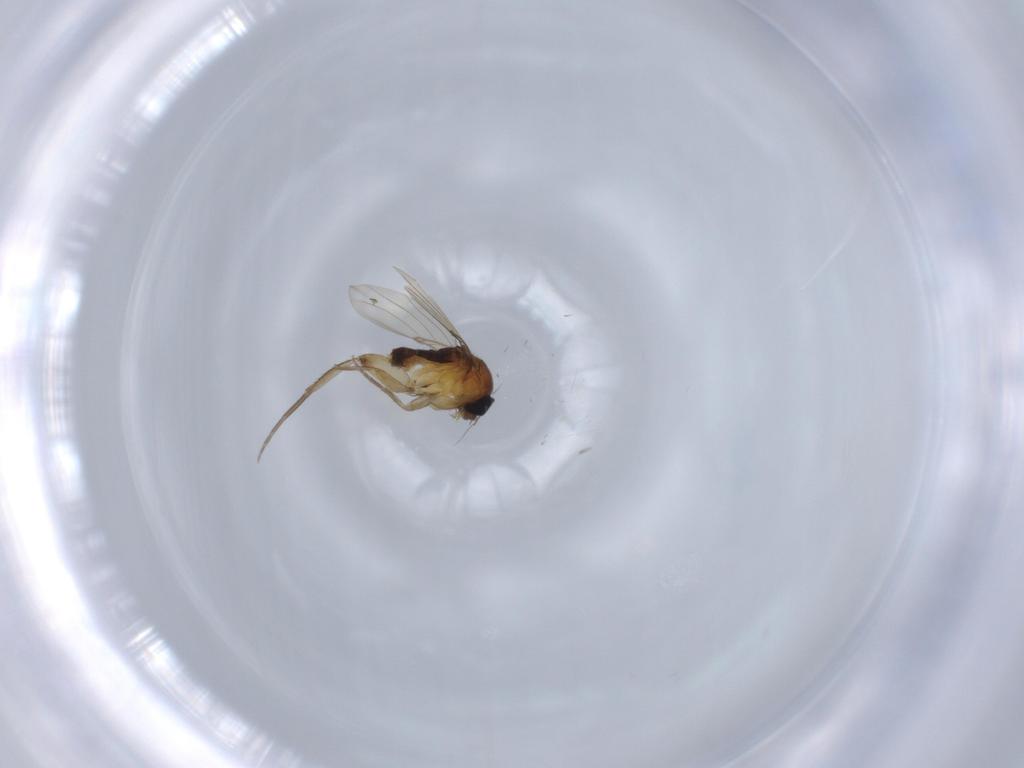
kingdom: Animalia
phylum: Arthropoda
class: Insecta
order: Diptera
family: Phoridae
